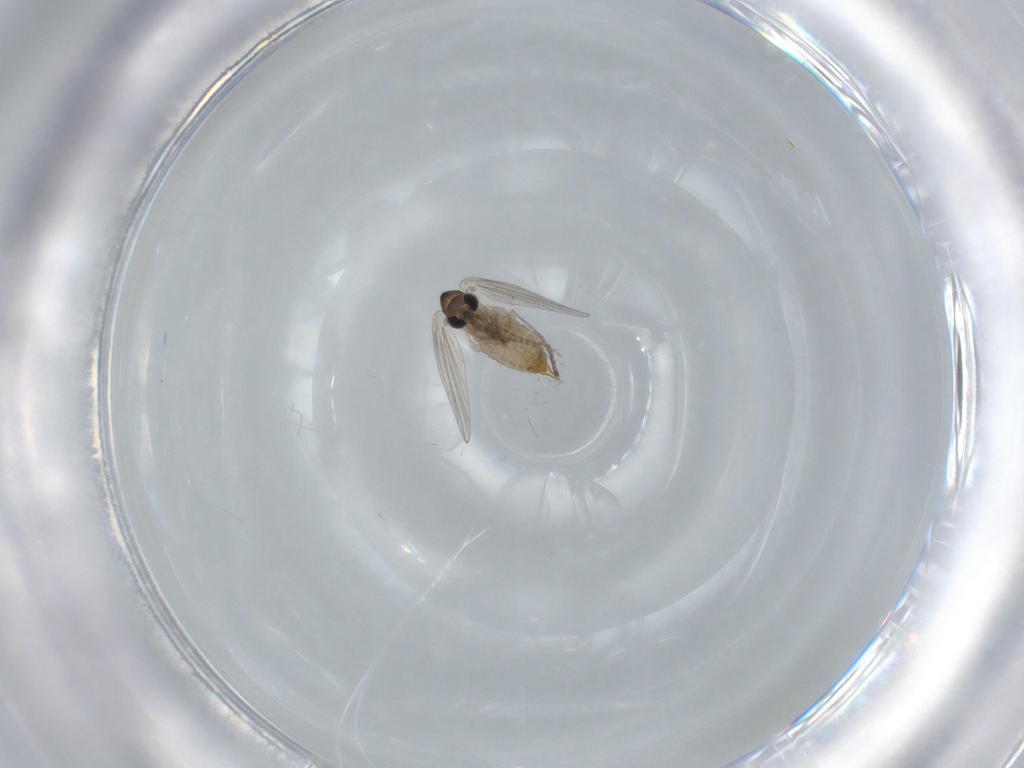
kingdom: Animalia
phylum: Arthropoda
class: Insecta
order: Diptera
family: Psychodidae
